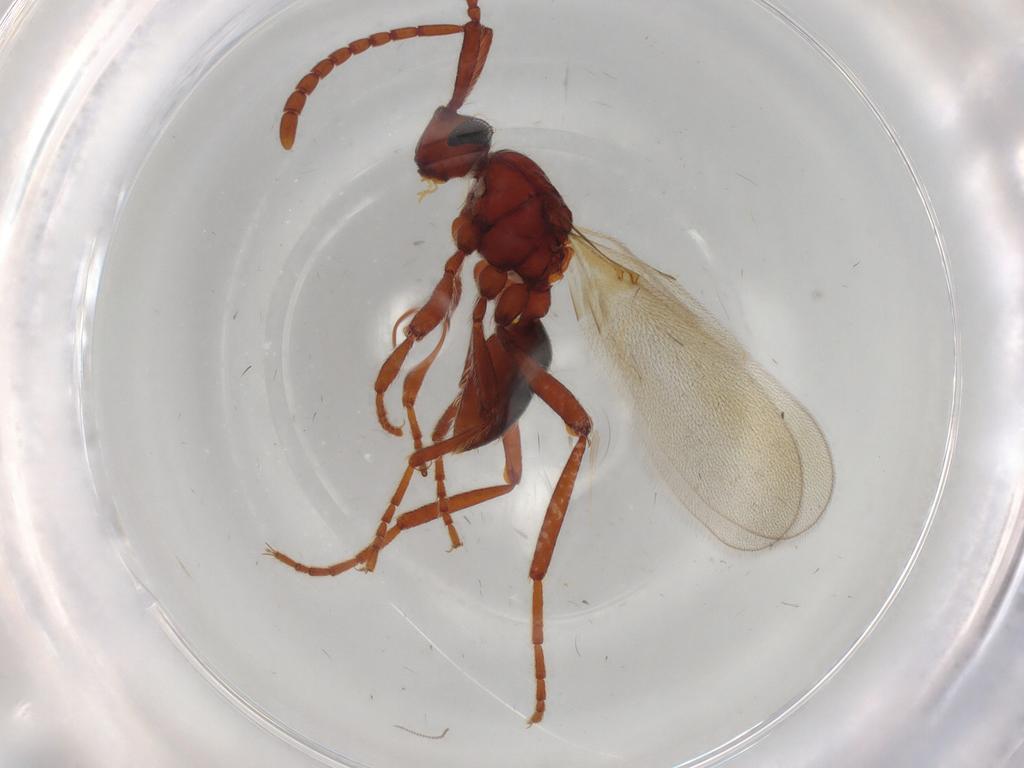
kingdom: Animalia
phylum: Arthropoda
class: Insecta
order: Hymenoptera
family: Diapriidae
